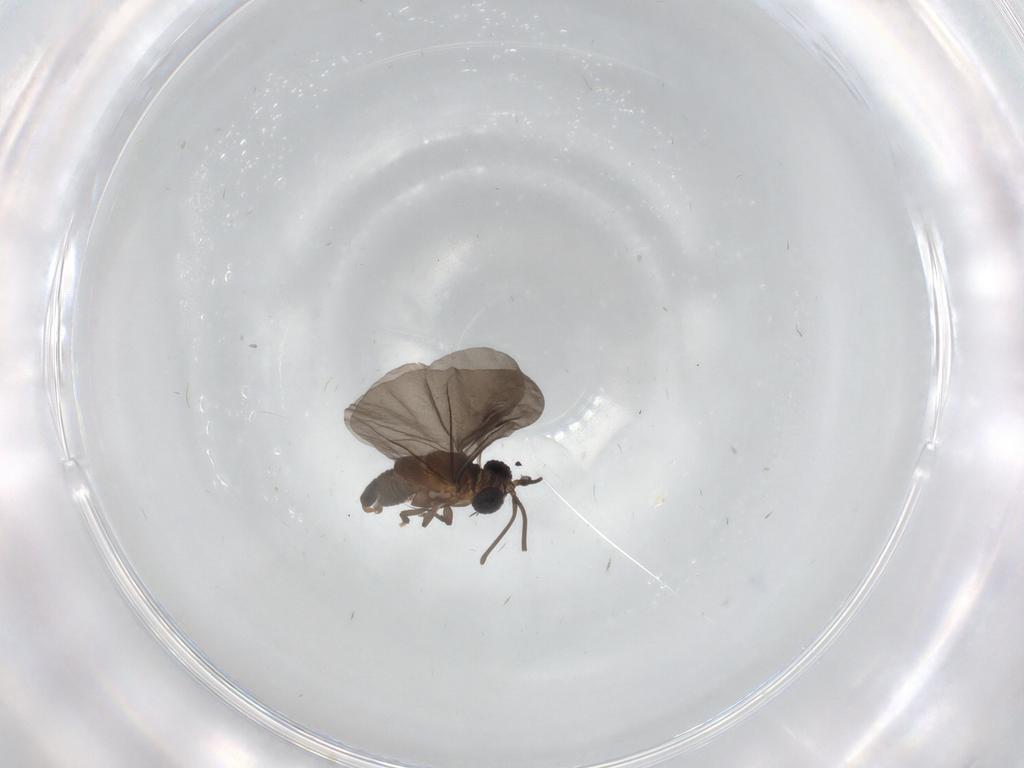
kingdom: Animalia
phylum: Arthropoda
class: Insecta
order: Strepsiptera
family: Myrmecolacidae
